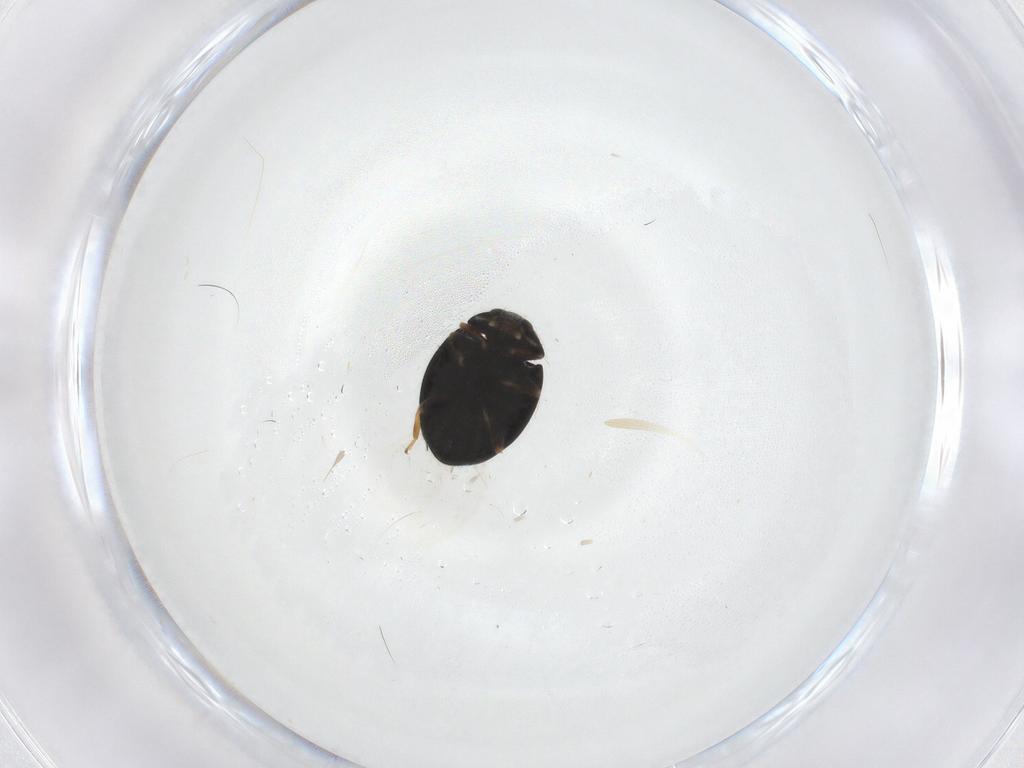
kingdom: Animalia
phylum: Arthropoda
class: Insecta
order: Coleoptera
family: Coccinellidae
